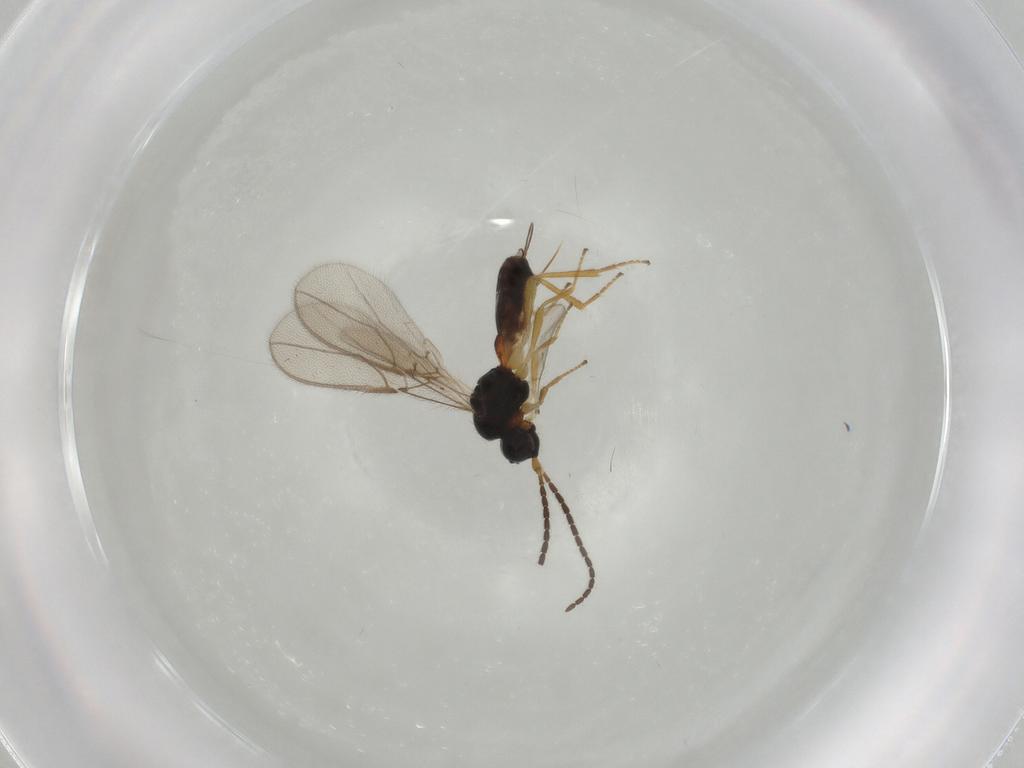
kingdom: Animalia
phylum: Arthropoda
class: Insecta
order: Hymenoptera
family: Braconidae
